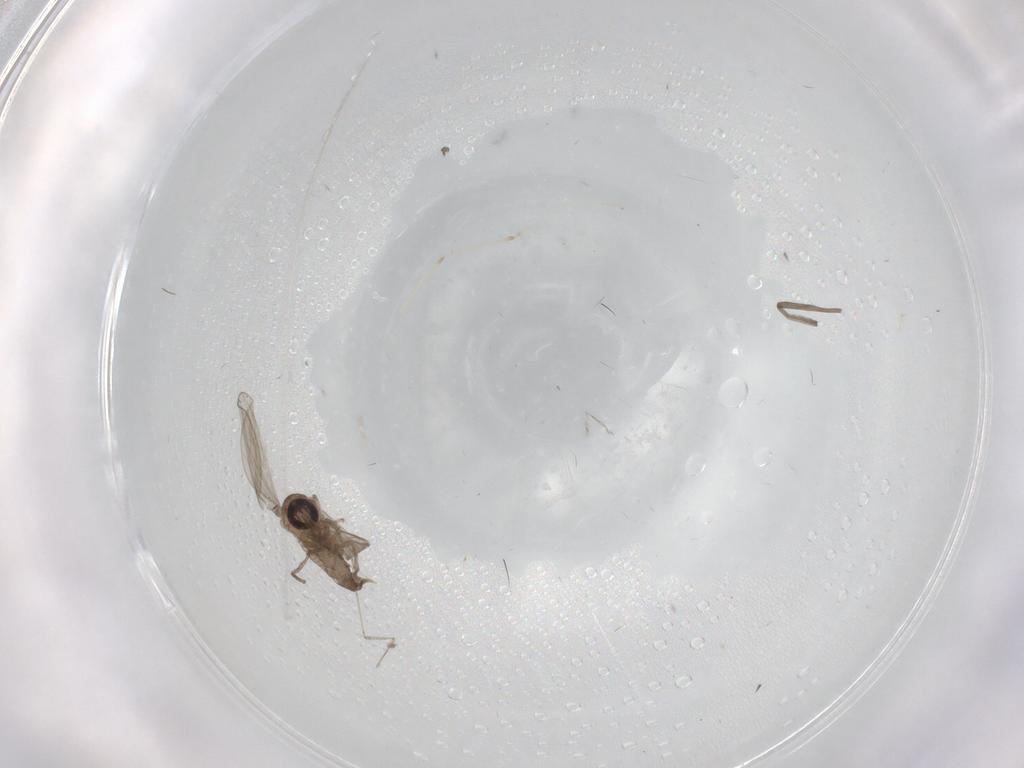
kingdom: Animalia
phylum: Arthropoda
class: Insecta
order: Diptera
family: Cecidomyiidae
